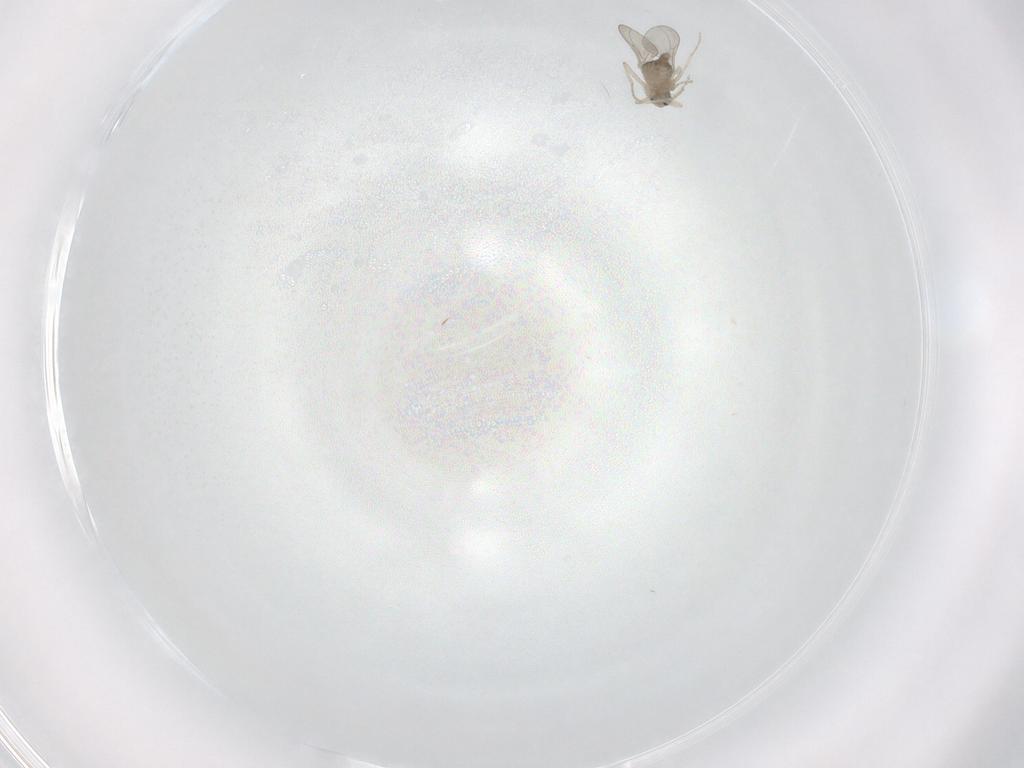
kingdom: Animalia
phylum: Arthropoda
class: Insecta
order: Diptera
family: Cecidomyiidae
